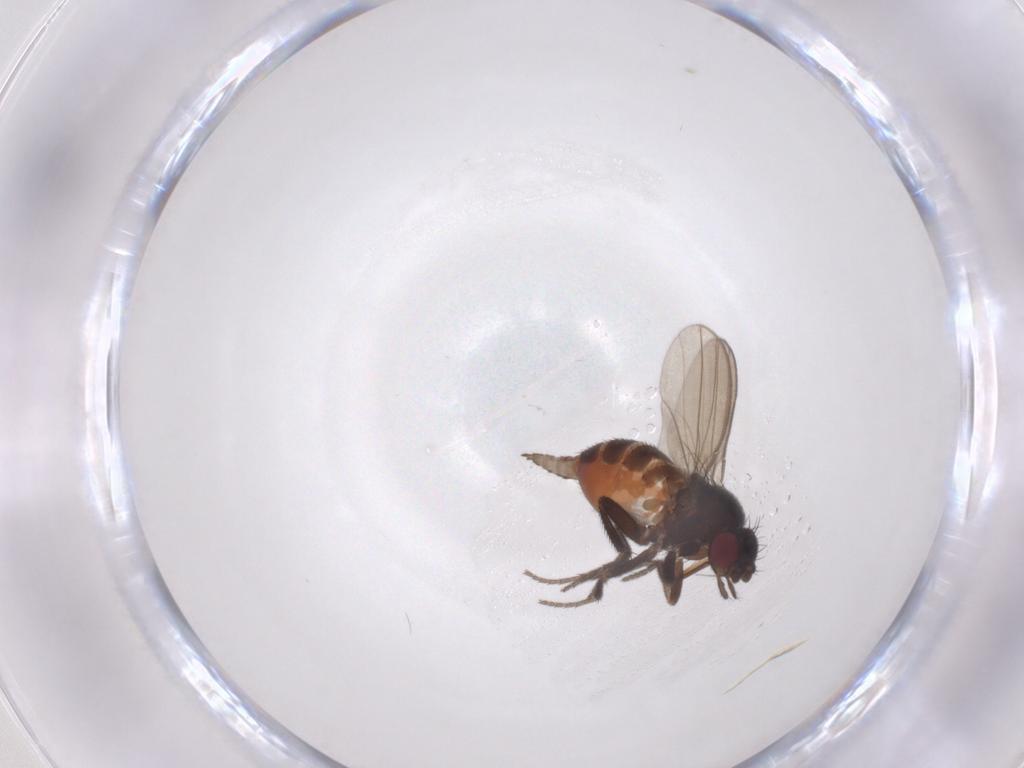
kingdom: Animalia
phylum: Arthropoda
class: Insecta
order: Diptera
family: Milichiidae
